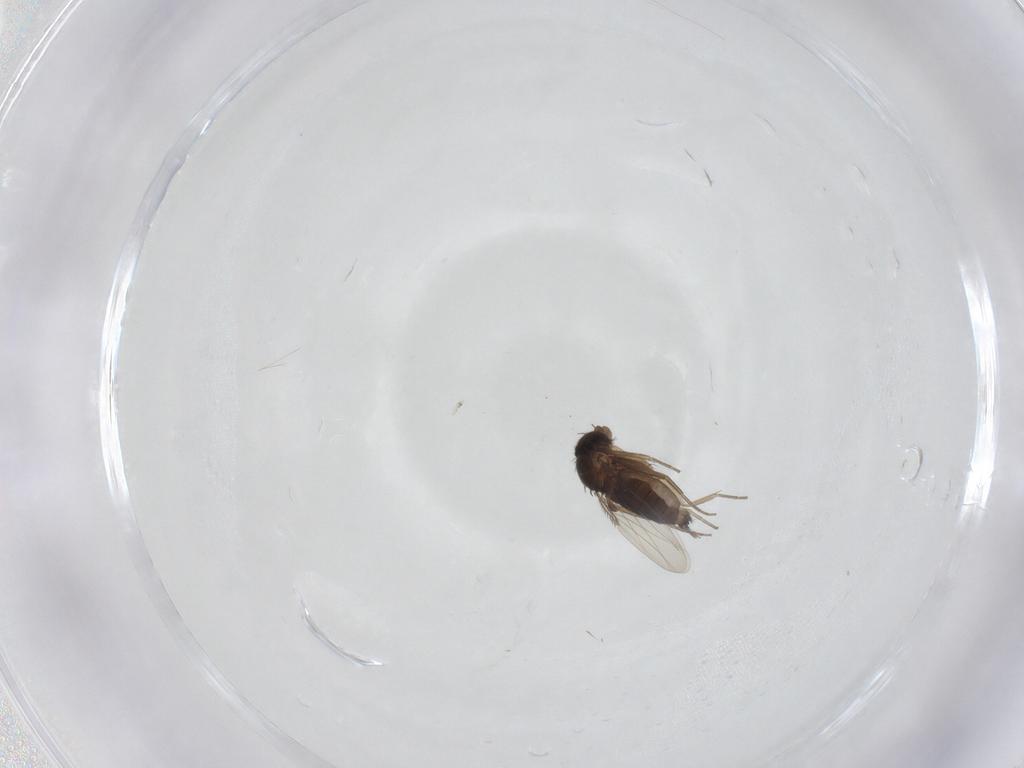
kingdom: Animalia
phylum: Arthropoda
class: Insecta
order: Diptera
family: Phoridae
